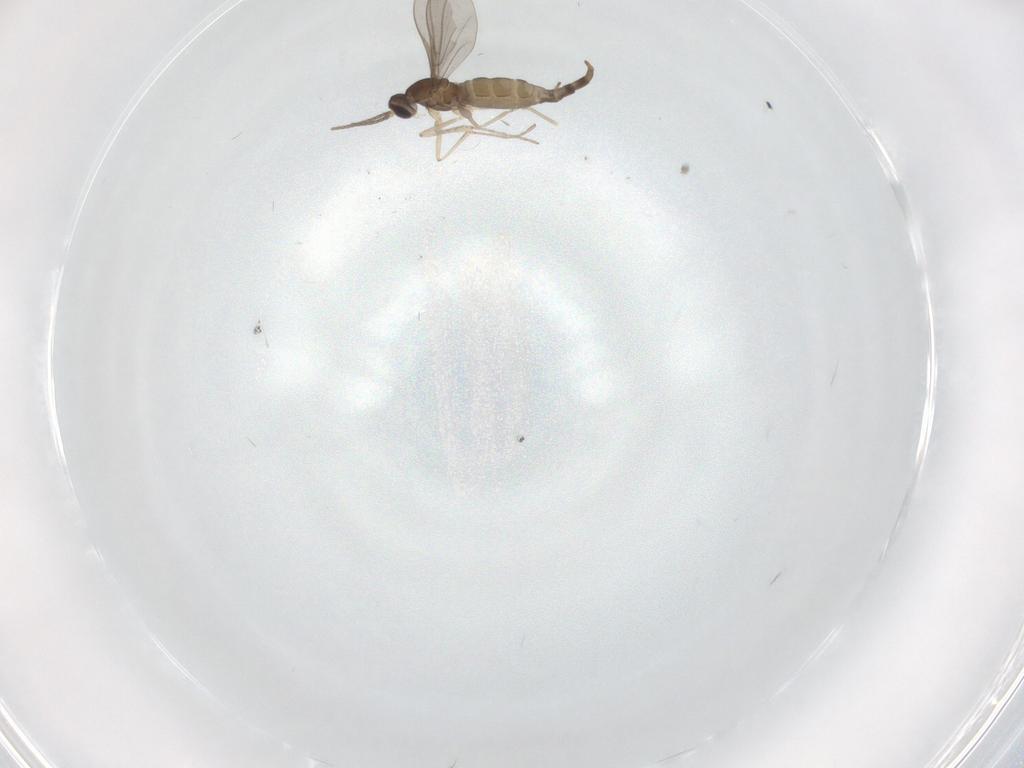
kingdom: Animalia
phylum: Arthropoda
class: Insecta
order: Diptera
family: Cecidomyiidae
